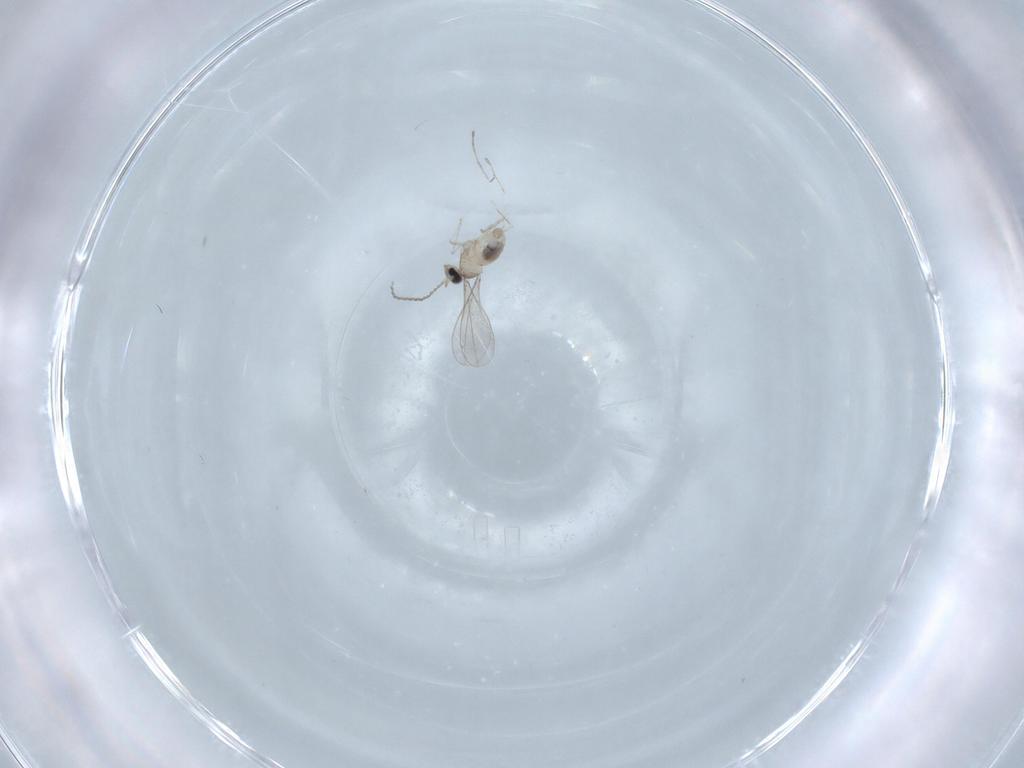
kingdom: Animalia
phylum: Arthropoda
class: Insecta
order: Diptera
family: Cecidomyiidae
